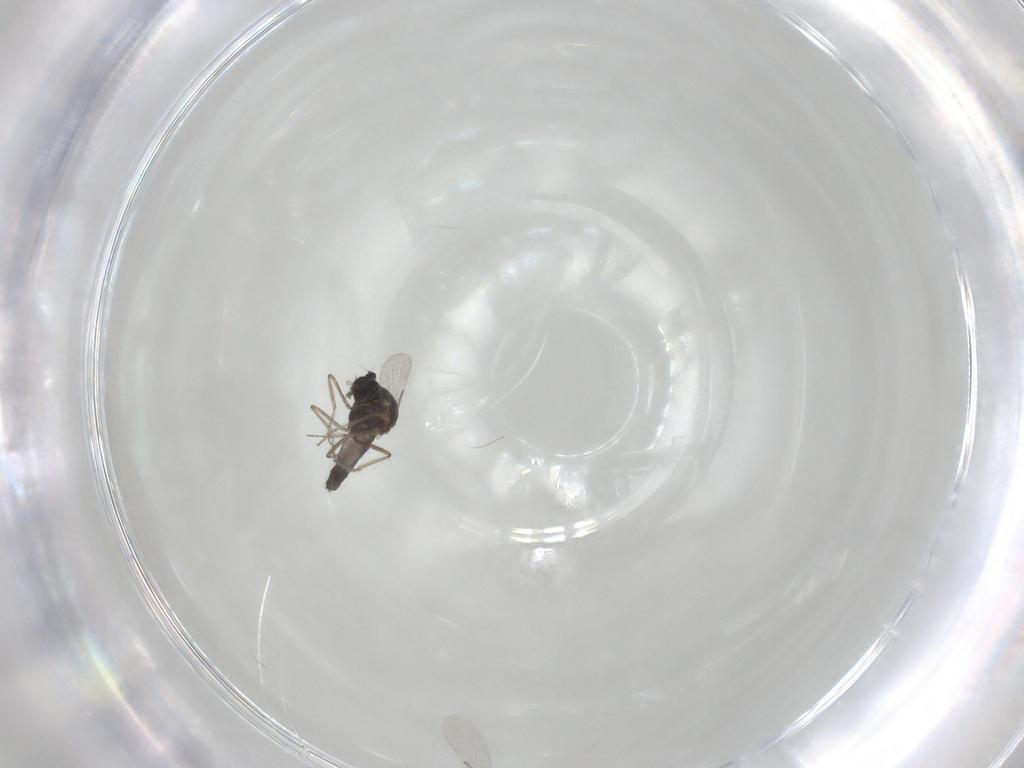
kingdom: Animalia
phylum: Arthropoda
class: Insecta
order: Diptera
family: Ceratopogonidae
